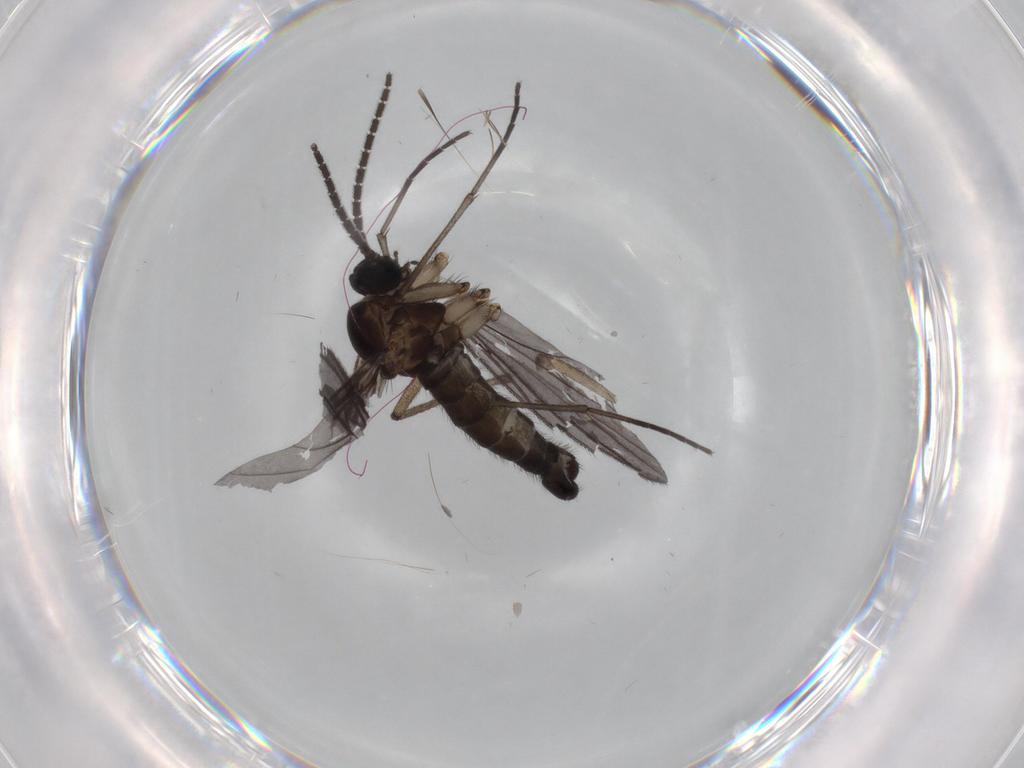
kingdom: Animalia
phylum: Arthropoda
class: Insecta
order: Diptera
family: Sciaridae
